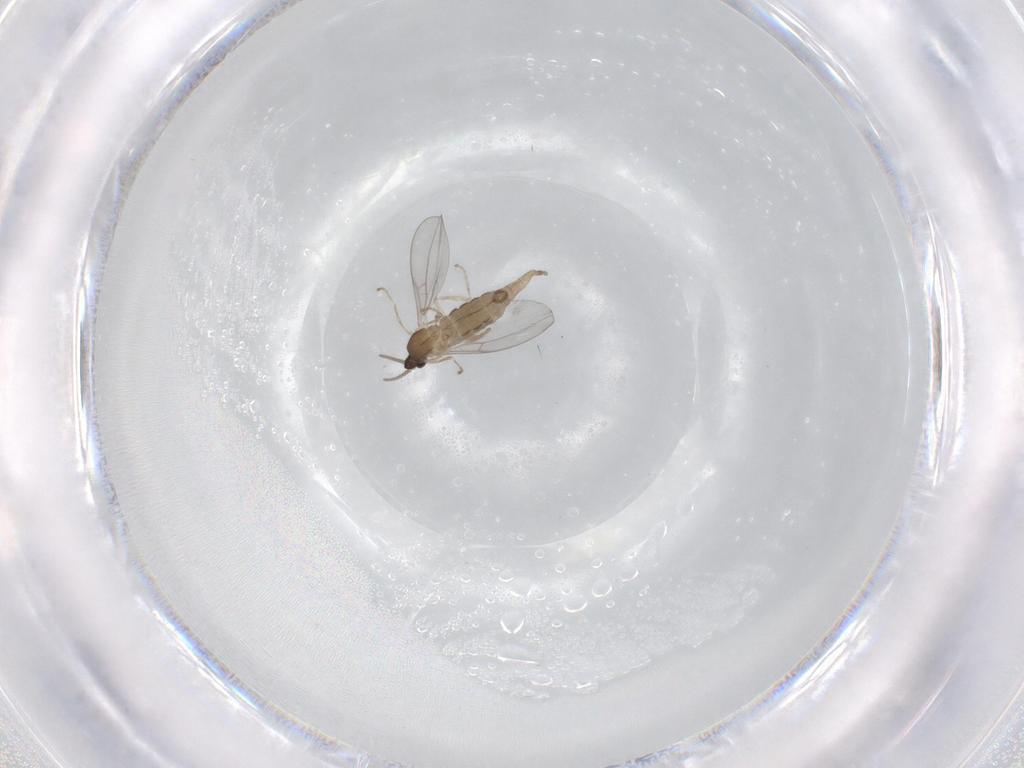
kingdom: Animalia
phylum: Arthropoda
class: Insecta
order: Diptera
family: Cecidomyiidae
